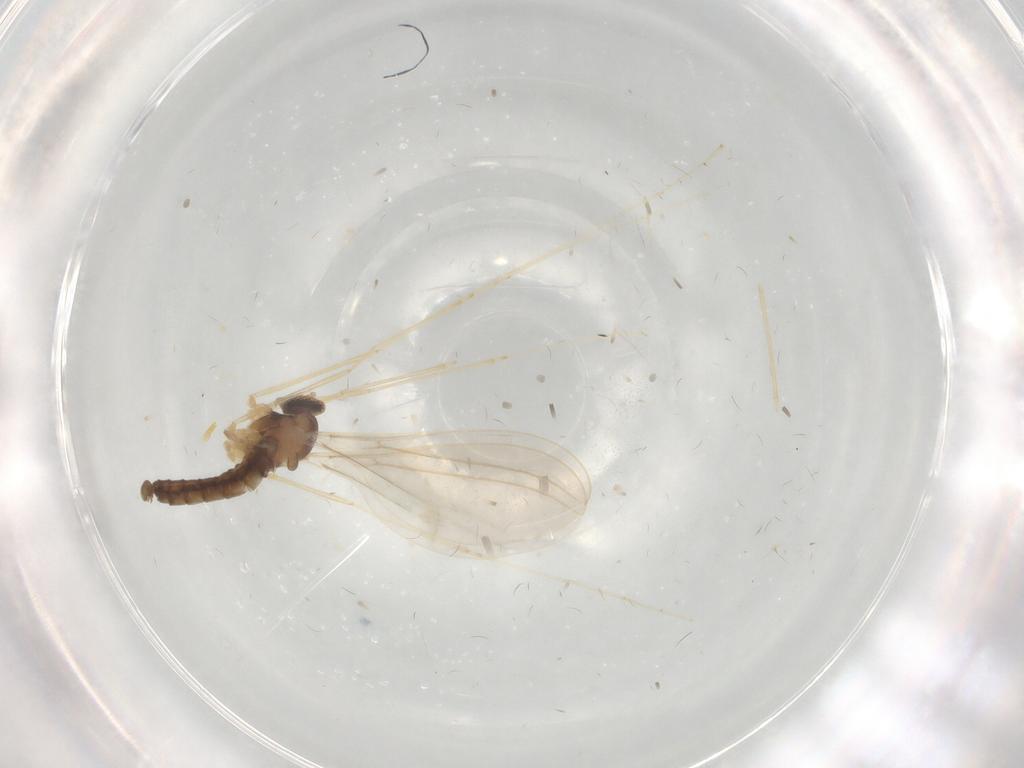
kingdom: Animalia
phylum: Arthropoda
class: Insecta
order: Diptera
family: Cecidomyiidae
